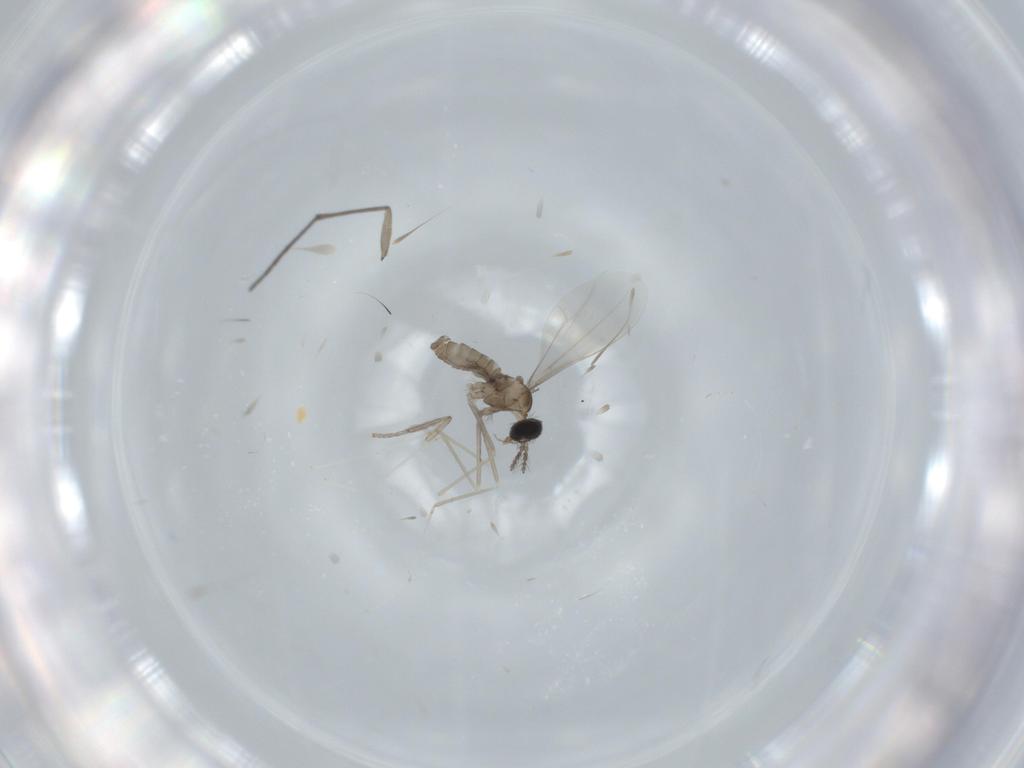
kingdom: Animalia
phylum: Arthropoda
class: Insecta
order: Diptera
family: Cecidomyiidae
